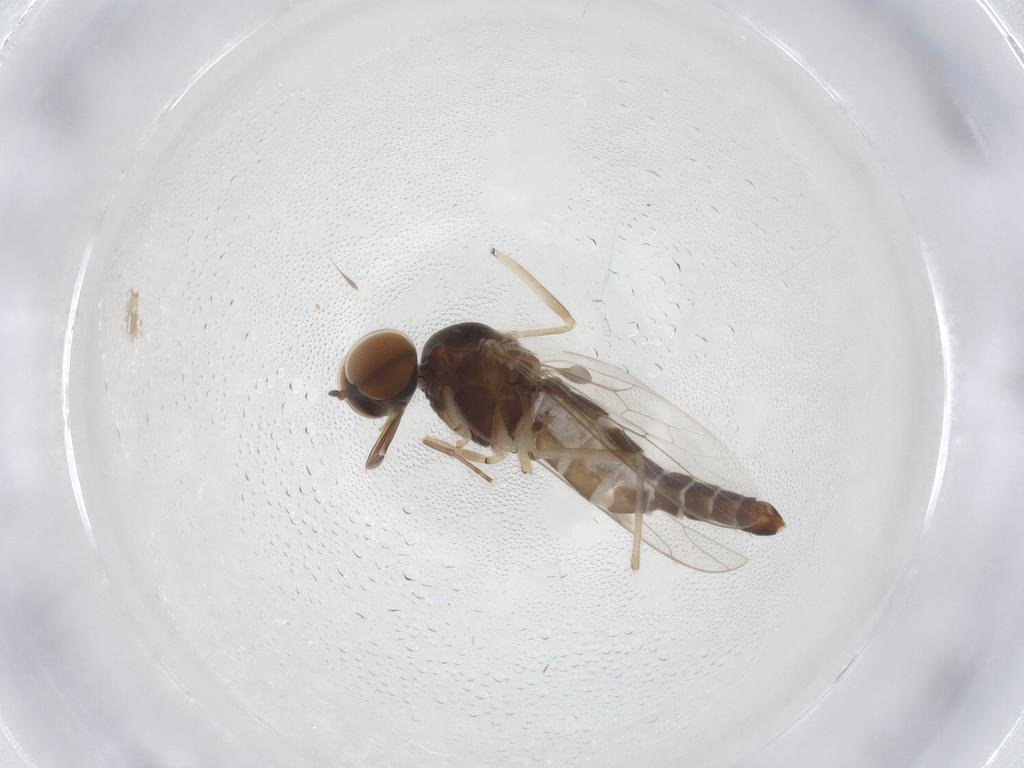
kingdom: Animalia
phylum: Arthropoda
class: Insecta
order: Diptera
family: Scenopinidae
